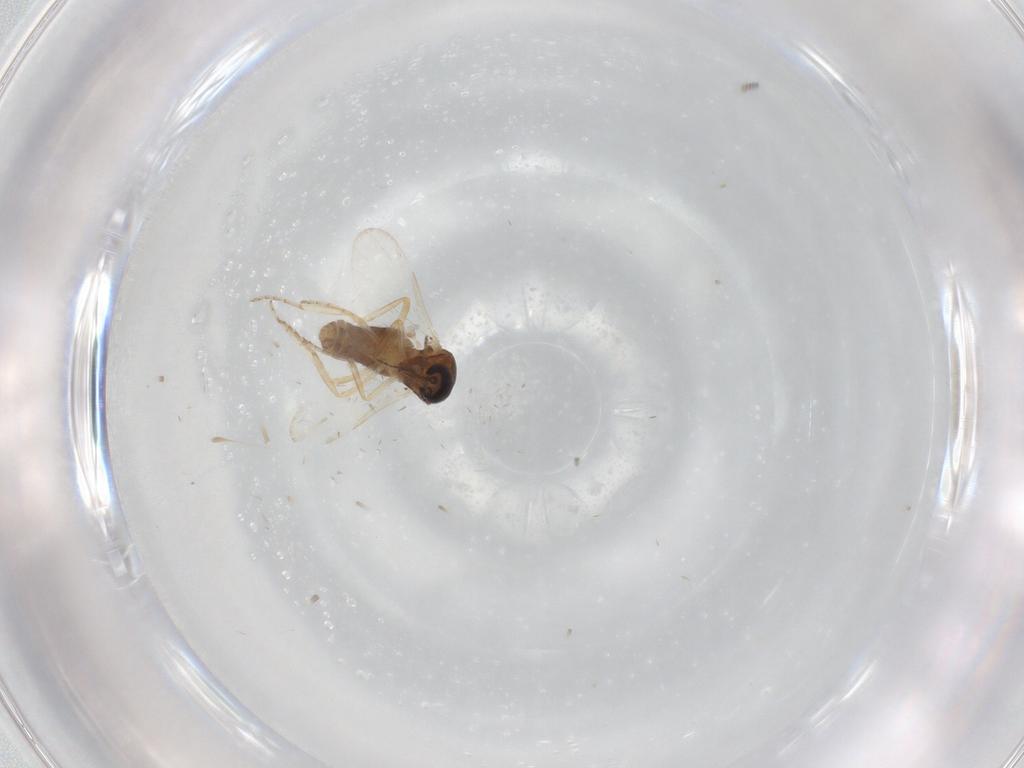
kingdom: Animalia
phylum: Arthropoda
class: Insecta
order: Diptera
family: Ceratopogonidae
